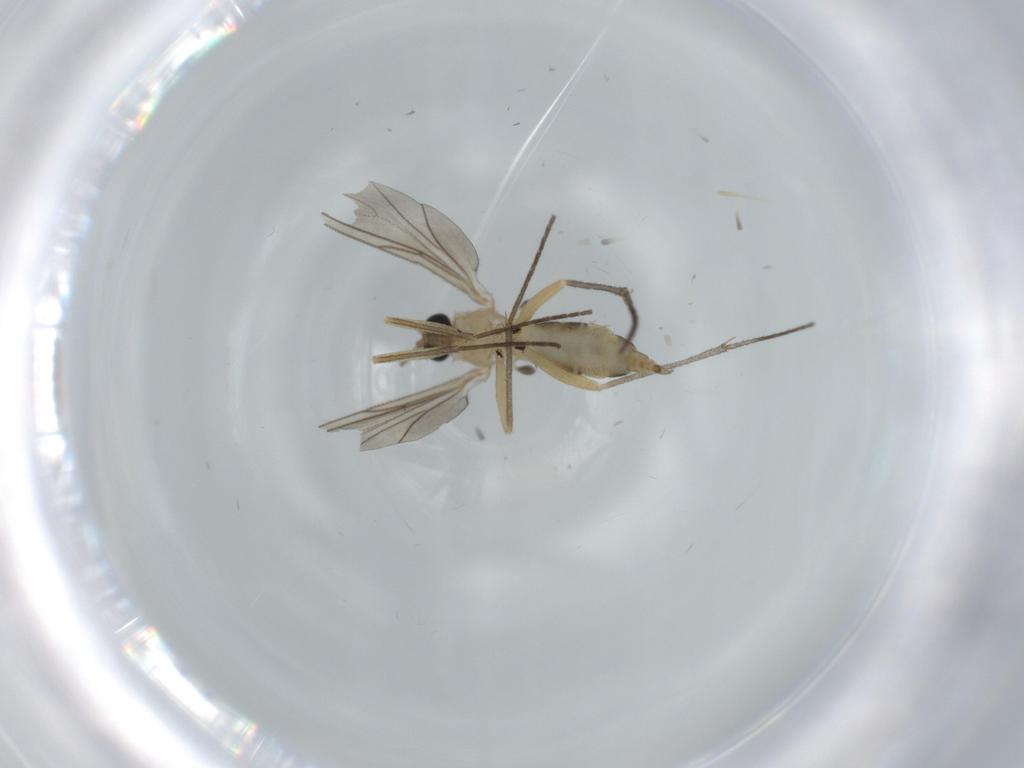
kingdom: Animalia
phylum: Arthropoda
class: Insecta
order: Diptera
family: Sciaridae
